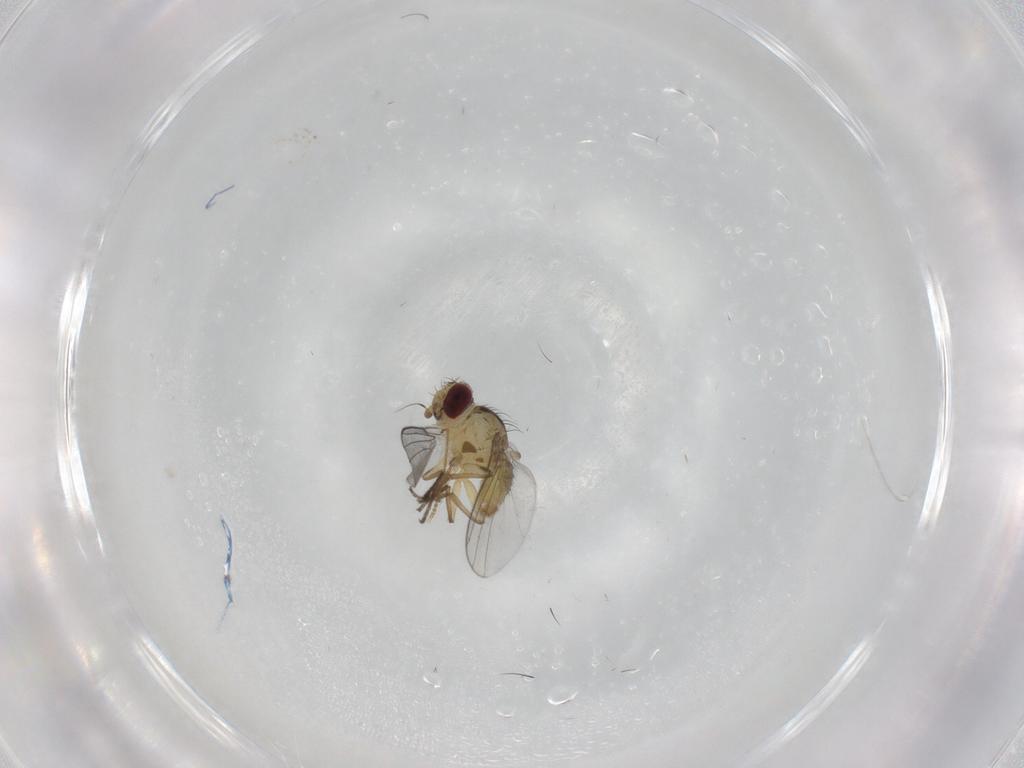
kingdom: Animalia
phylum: Arthropoda
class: Insecta
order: Diptera
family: Agromyzidae
